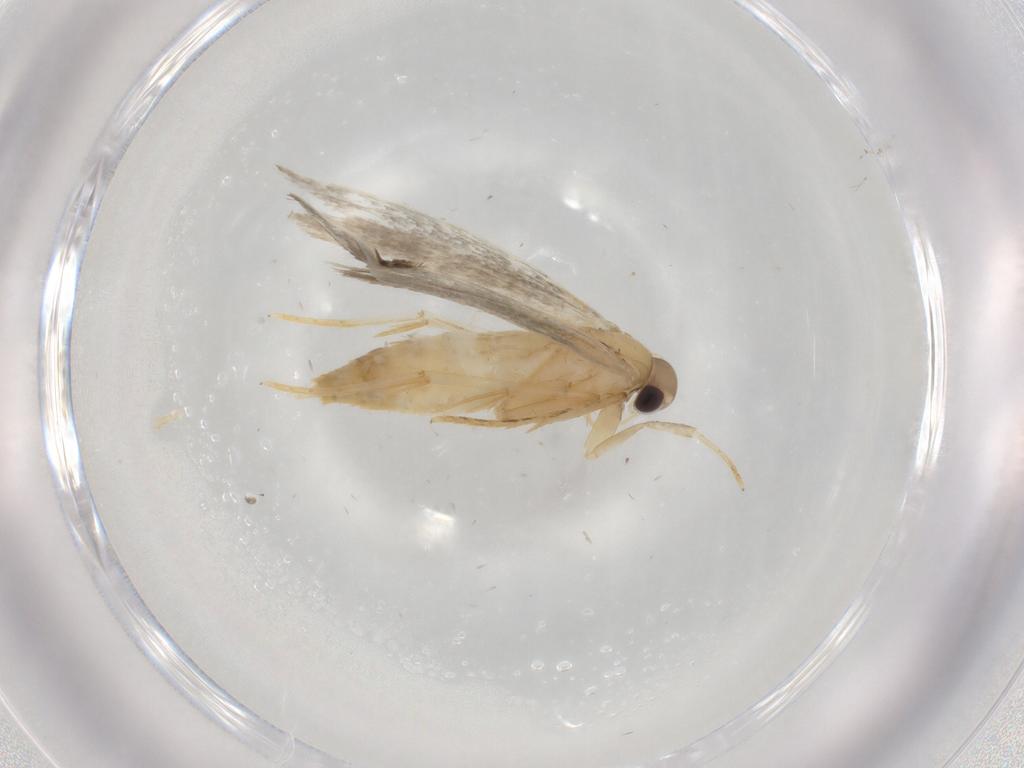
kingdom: Animalia
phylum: Arthropoda
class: Insecta
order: Lepidoptera
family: Autostichidae
